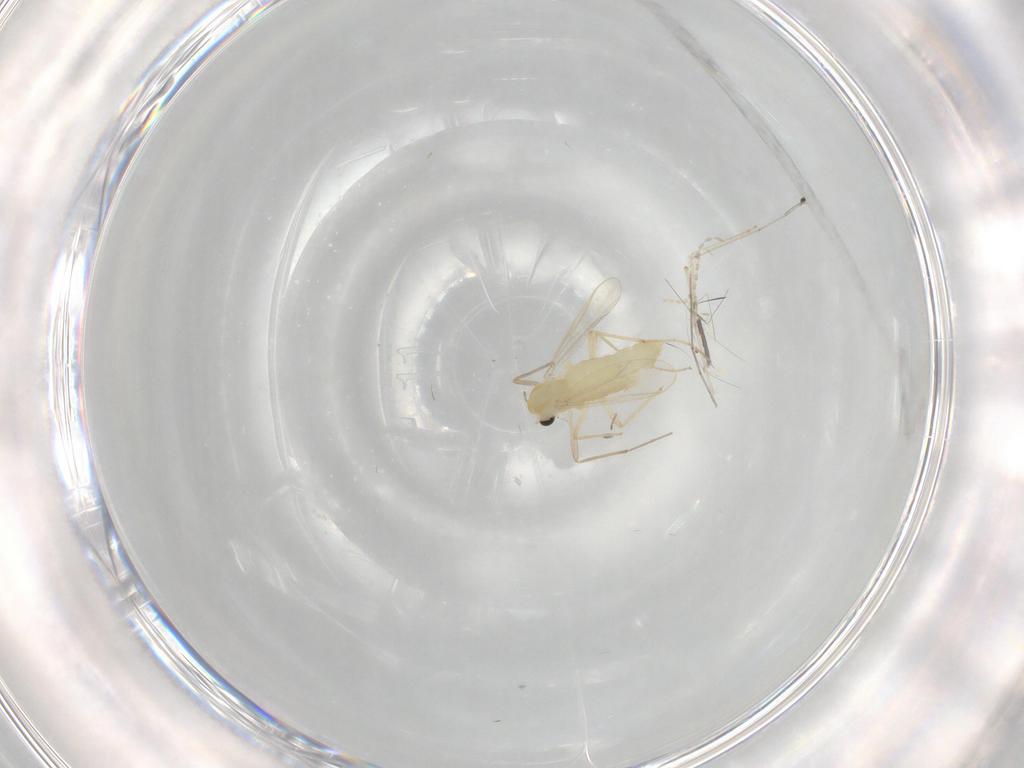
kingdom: Animalia
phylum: Arthropoda
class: Insecta
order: Diptera
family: Chironomidae
